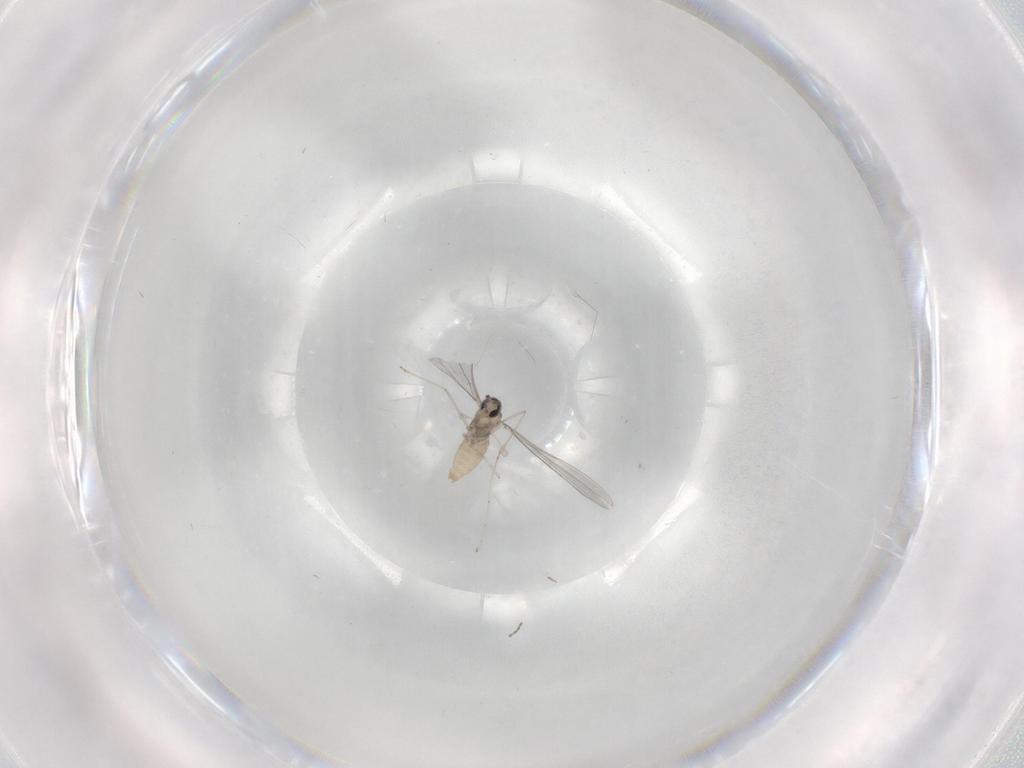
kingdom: Animalia
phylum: Arthropoda
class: Insecta
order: Diptera
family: Cecidomyiidae
